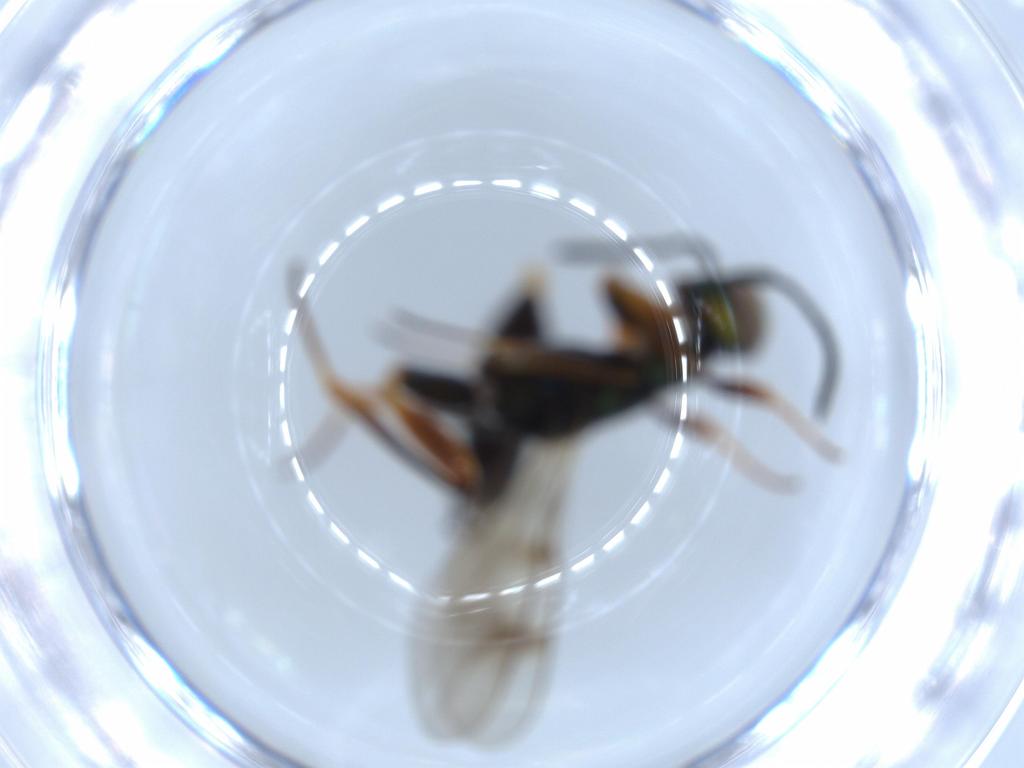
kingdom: Animalia
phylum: Arthropoda
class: Insecta
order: Hymenoptera
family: Lyciscidae
